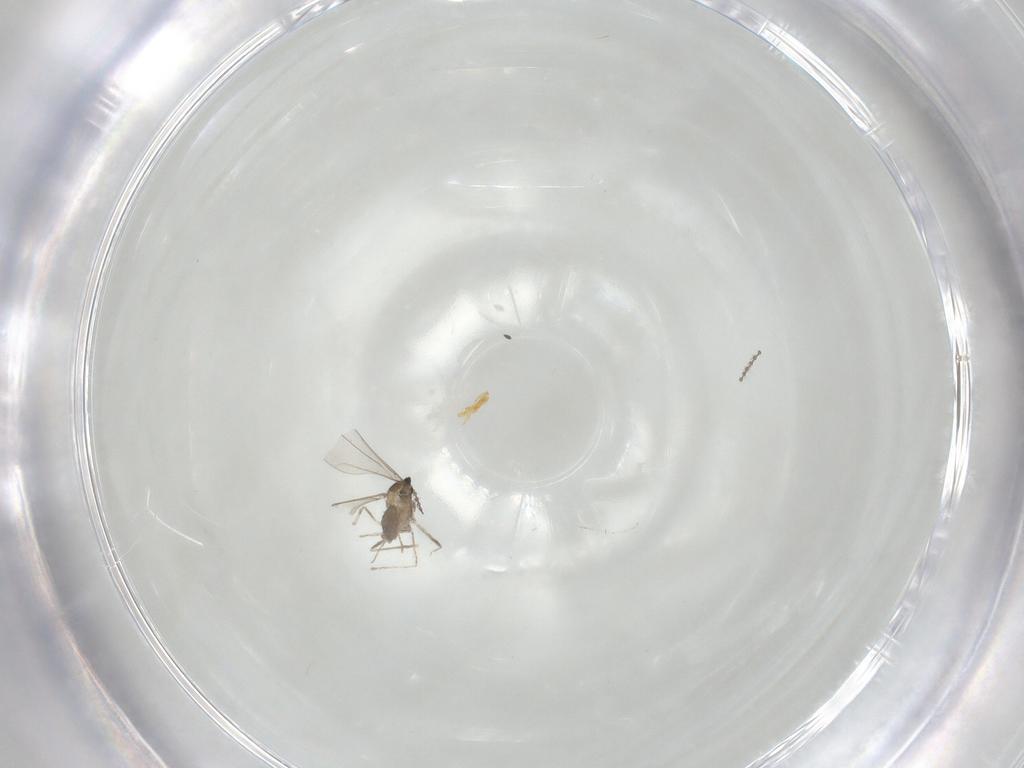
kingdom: Animalia
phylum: Arthropoda
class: Insecta
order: Diptera
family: Cecidomyiidae
